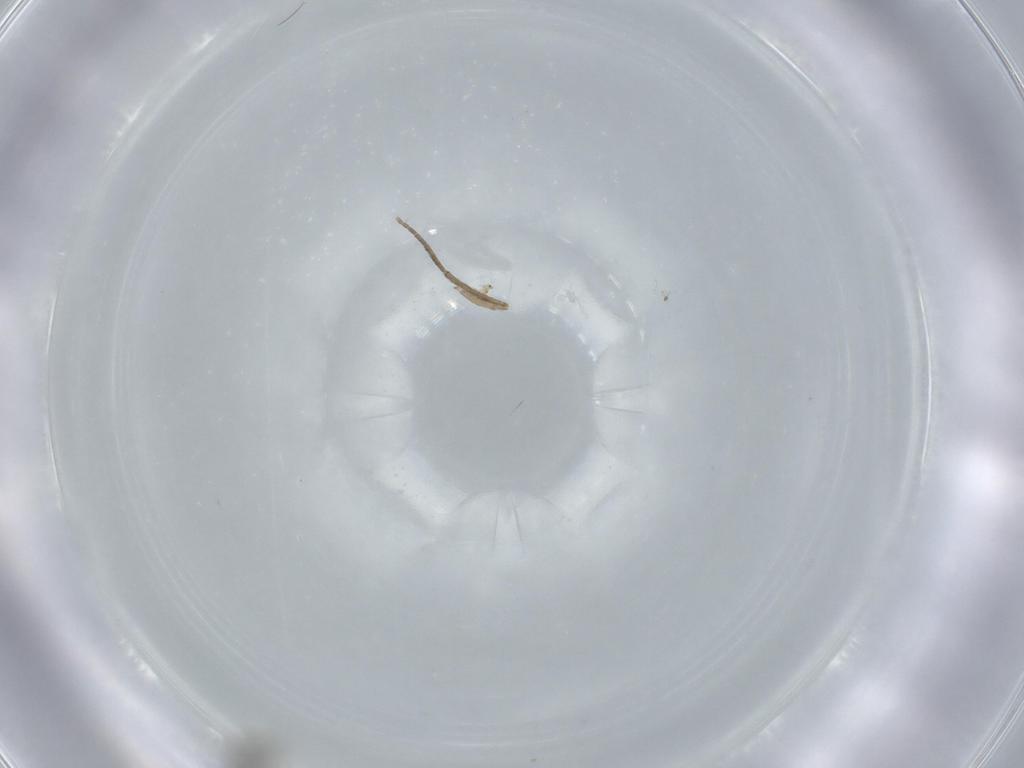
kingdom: Animalia
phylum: Arthropoda
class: Insecta
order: Diptera
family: Psychodidae
